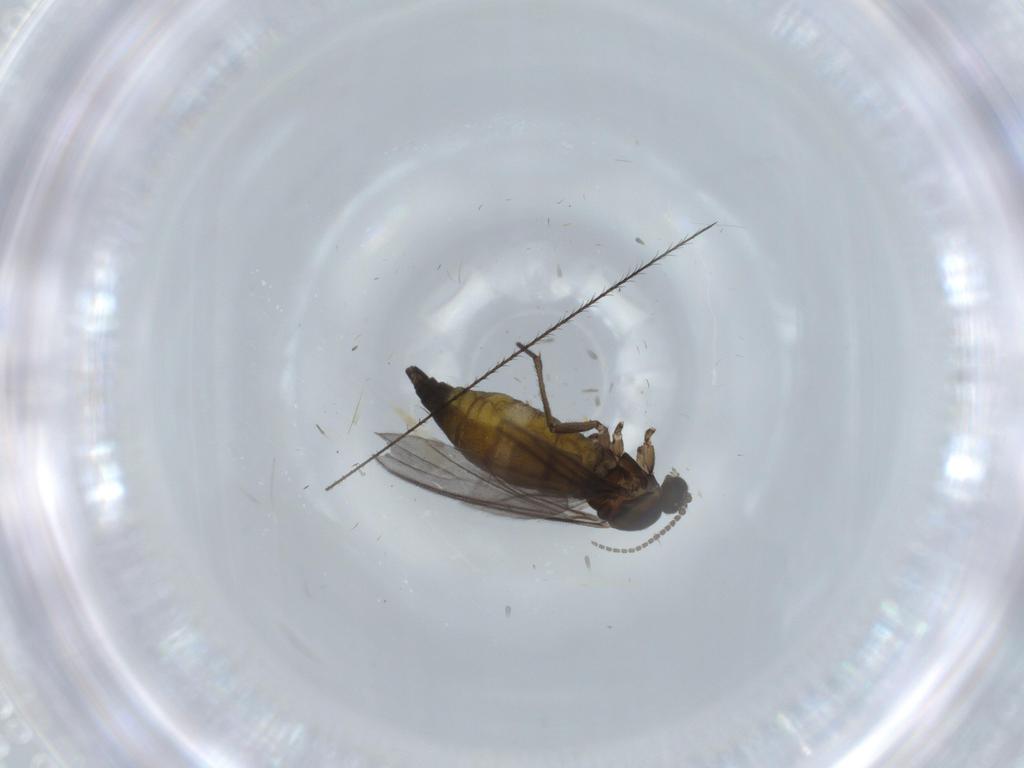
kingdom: Animalia
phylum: Arthropoda
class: Insecta
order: Diptera
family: Sciaridae
